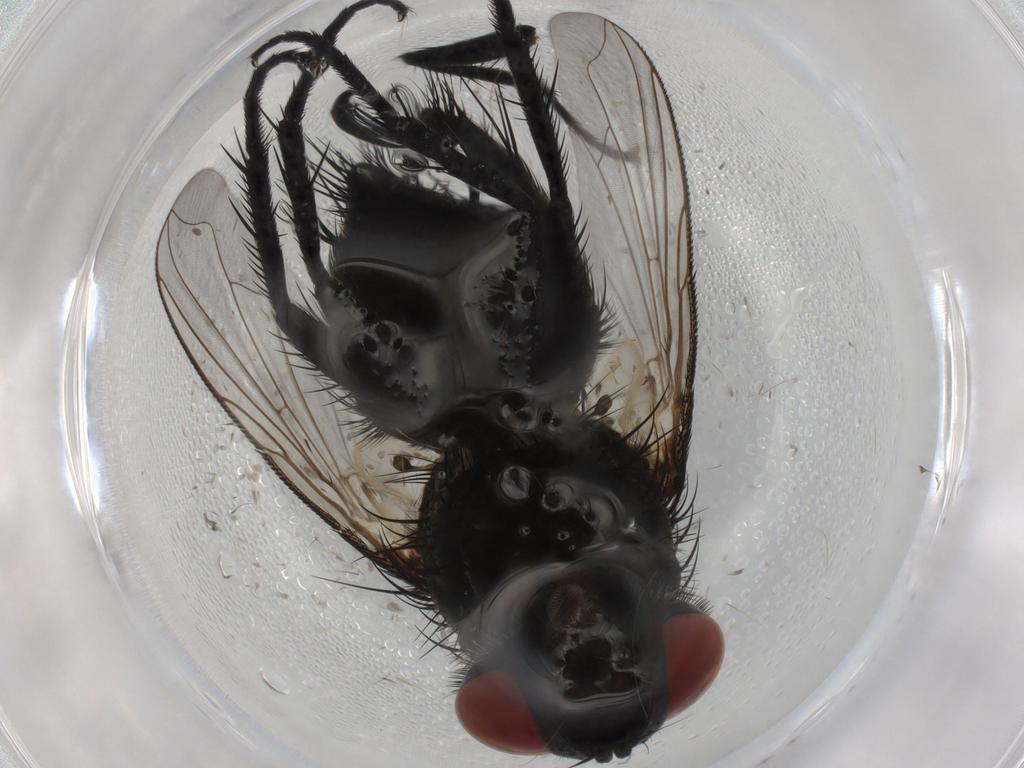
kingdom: Animalia
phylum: Arthropoda
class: Insecta
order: Diptera
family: Tachinidae
